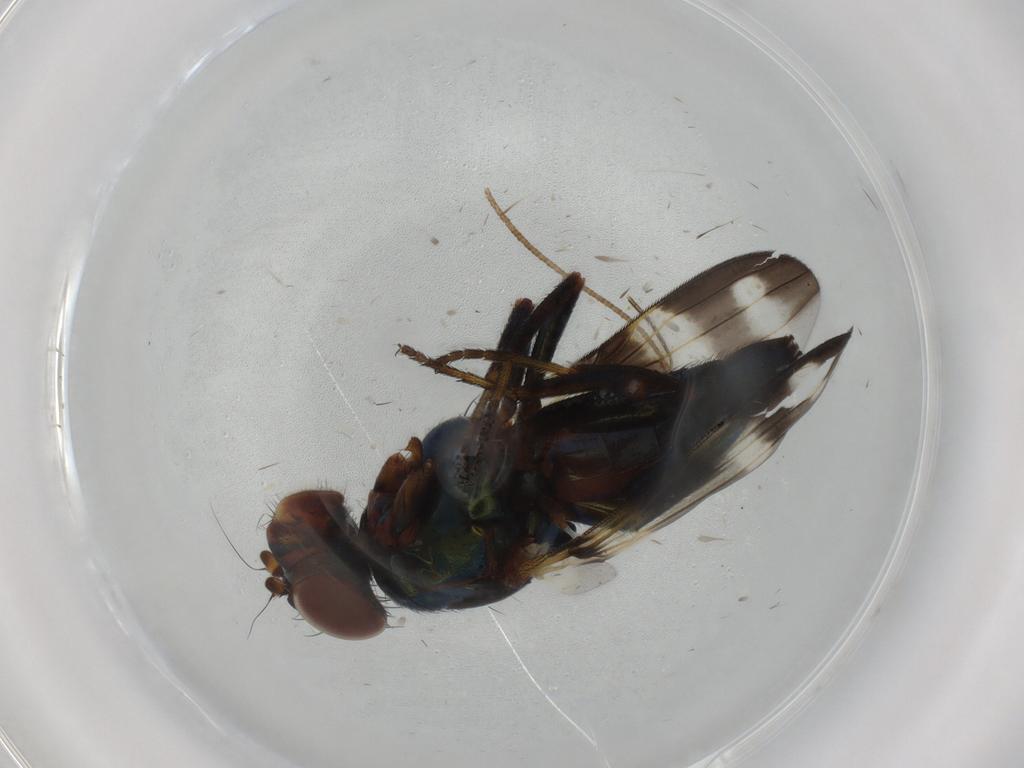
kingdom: Animalia
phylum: Arthropoda
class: Insecta
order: Diptera
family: Ulidiidae
